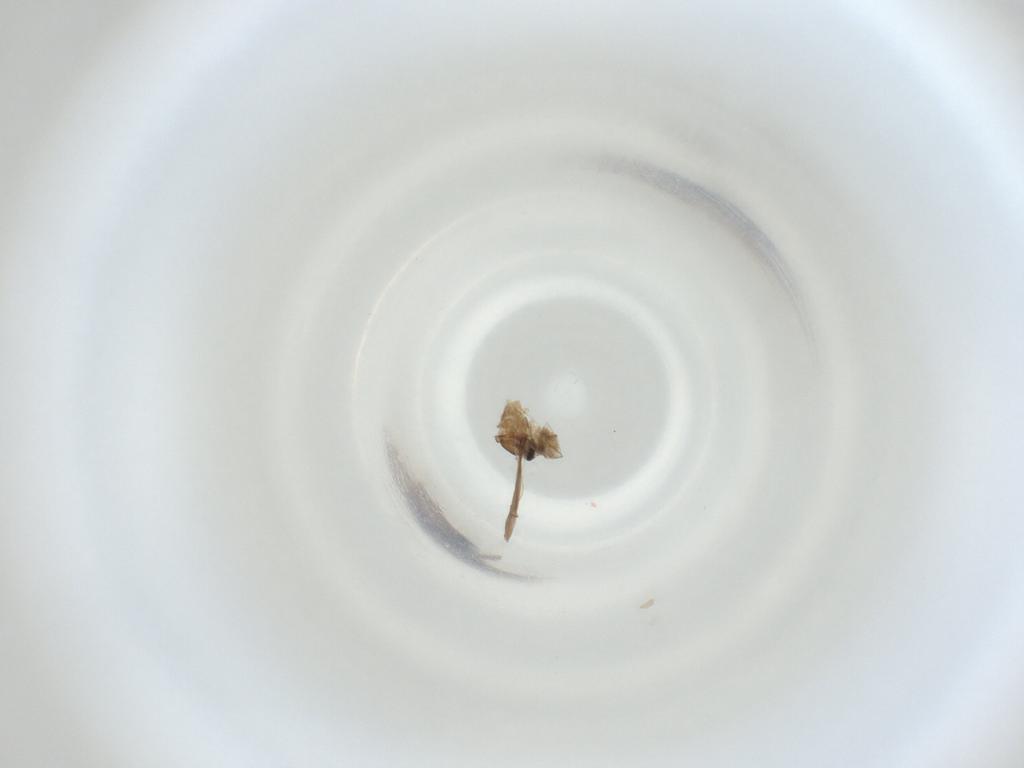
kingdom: Animalia
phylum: Arthropoda
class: Insecta
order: Diptera
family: Cecidomyiidae
